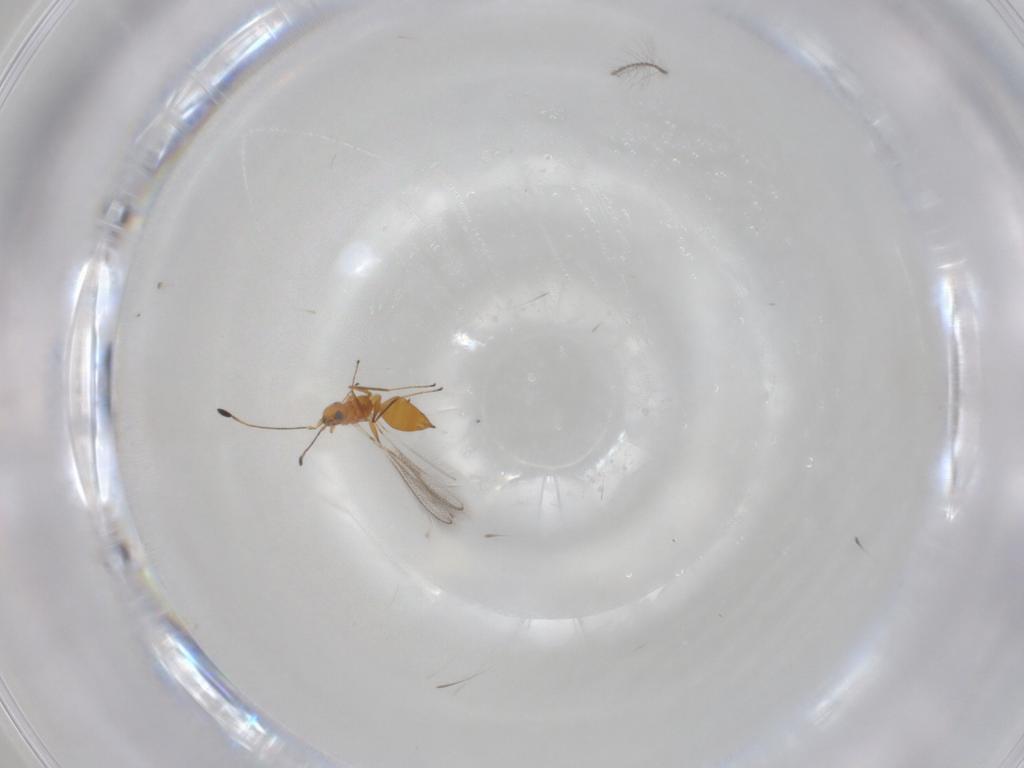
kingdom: Animalia
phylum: Arthropoda
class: Insecta
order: Hymenoptera
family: Mymaridae
